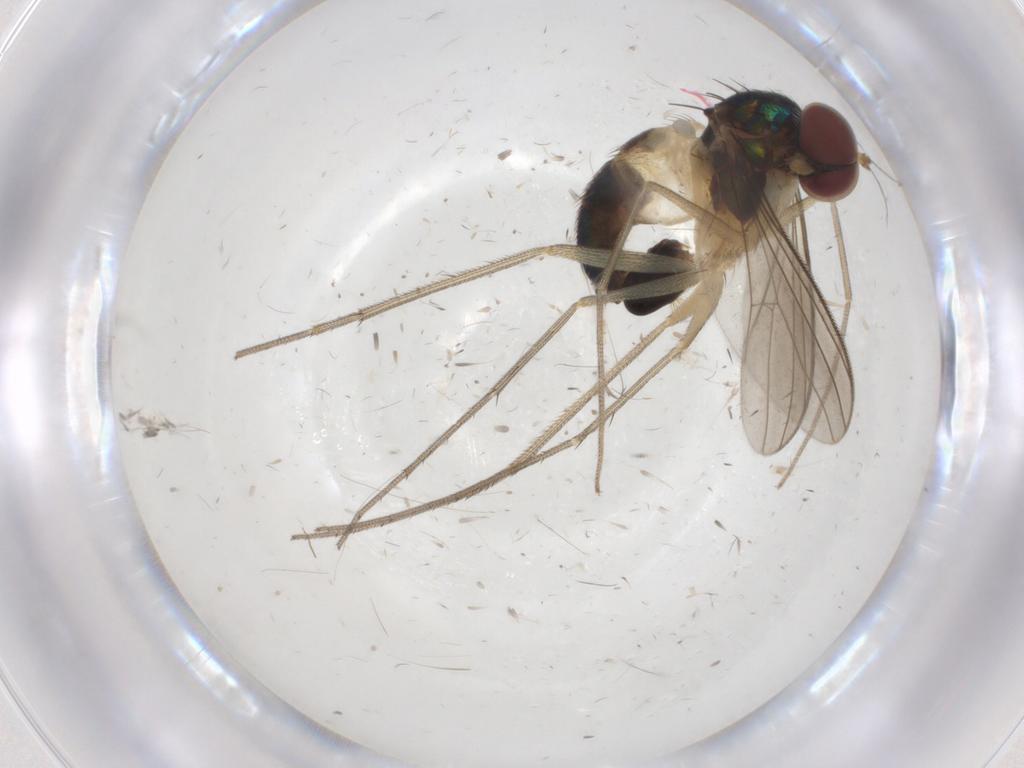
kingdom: Animalia
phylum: Arthropoda
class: Insecta
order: Diptera
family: Dolichopodidae
